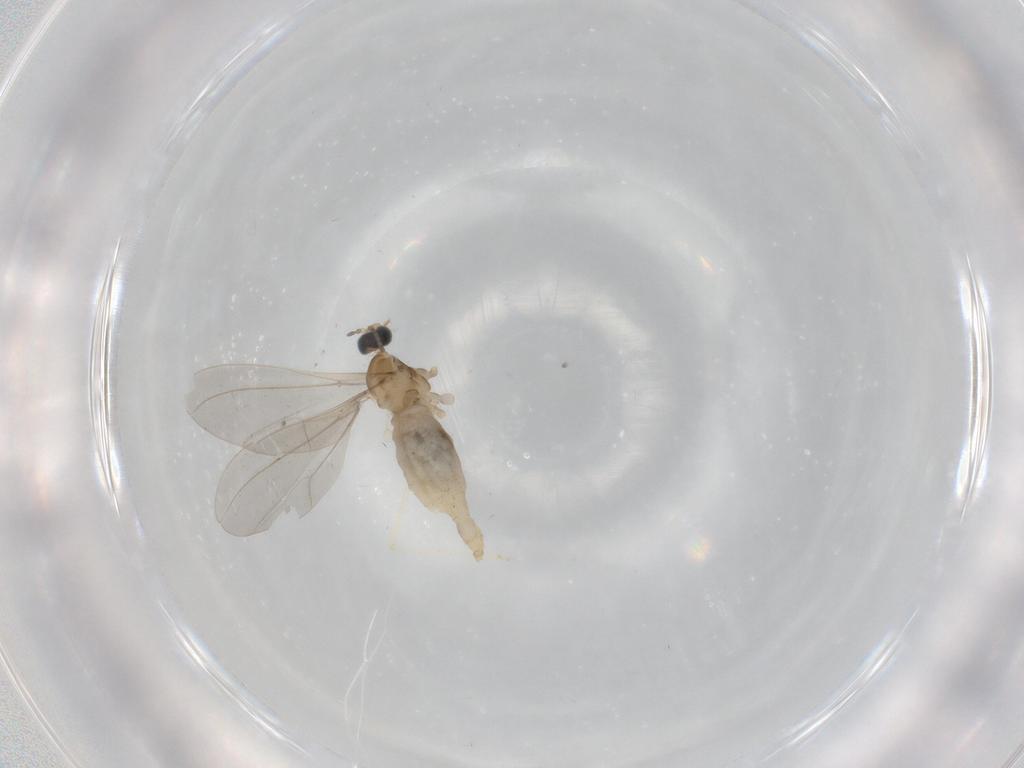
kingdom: Animalia
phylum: Arthropoda
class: Insecta
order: Diptera
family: Cecidomyiidae
